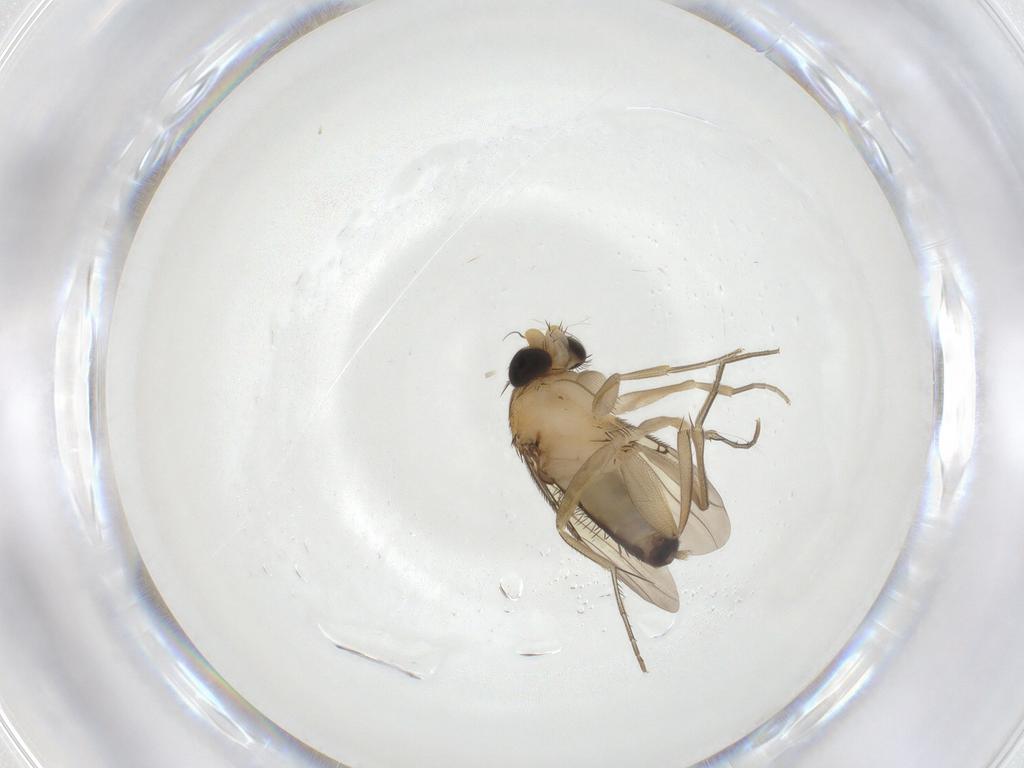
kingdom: Animalia
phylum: Arthropoda
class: Insecta
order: Diptera
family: Phoridae
